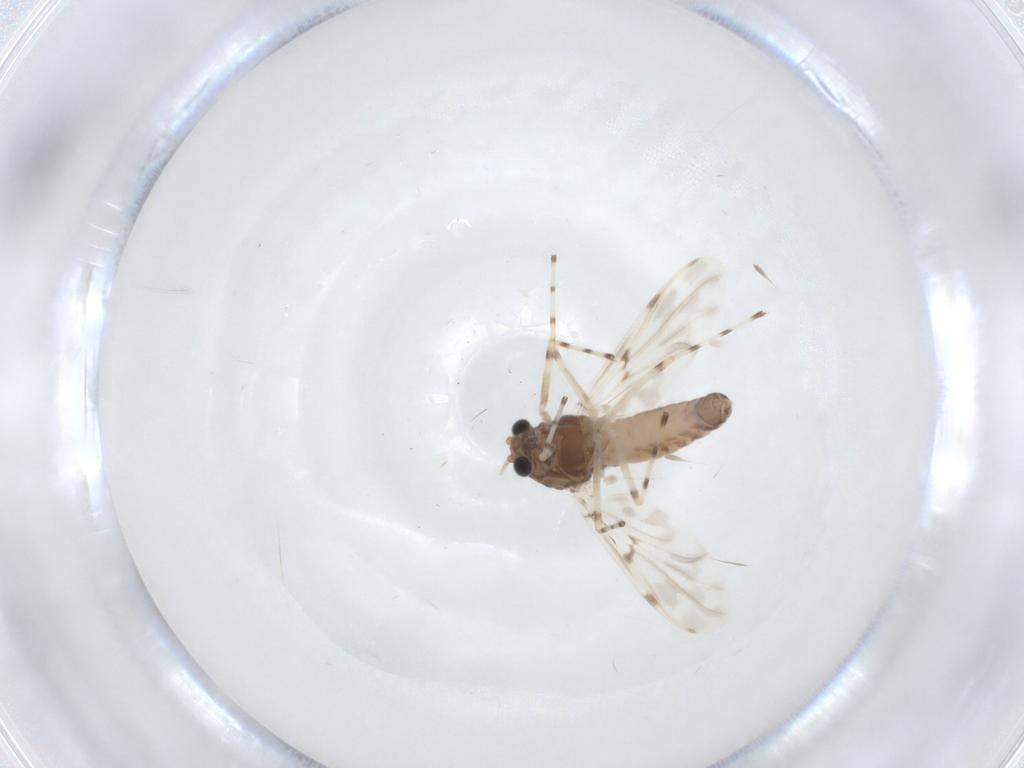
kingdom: Animalia
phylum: Arthropoda
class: Insecta
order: Diptera
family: Chironomidae
